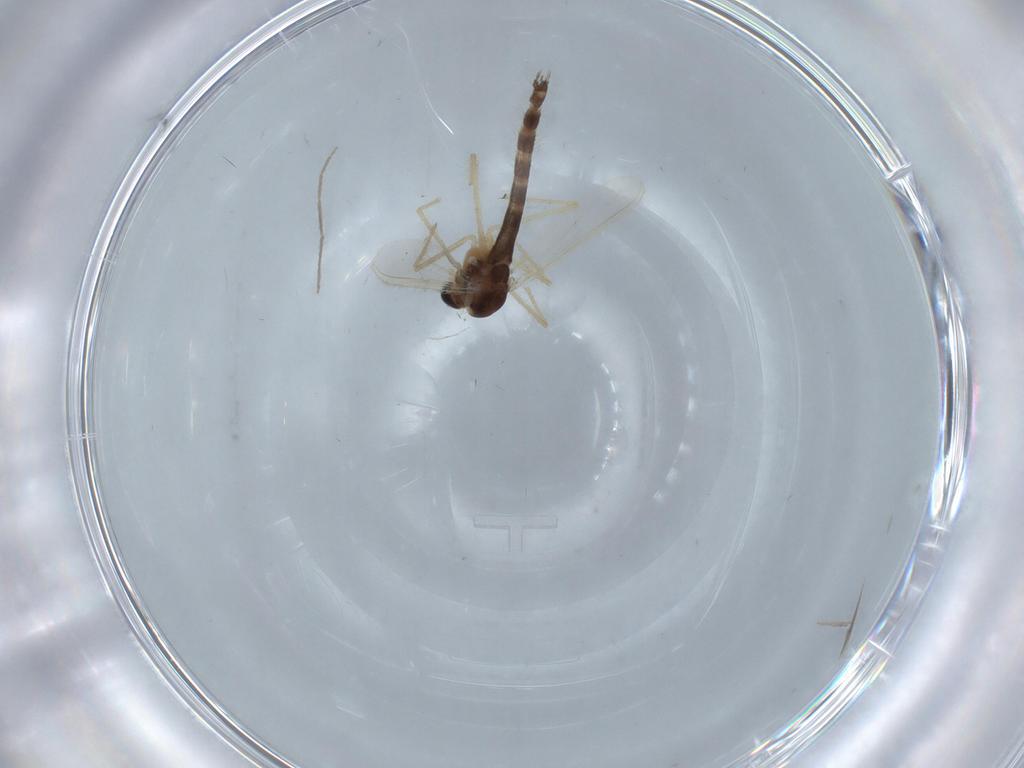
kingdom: Animalia
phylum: Arthropoda
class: Insecta
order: Diptera
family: Chironomidae
